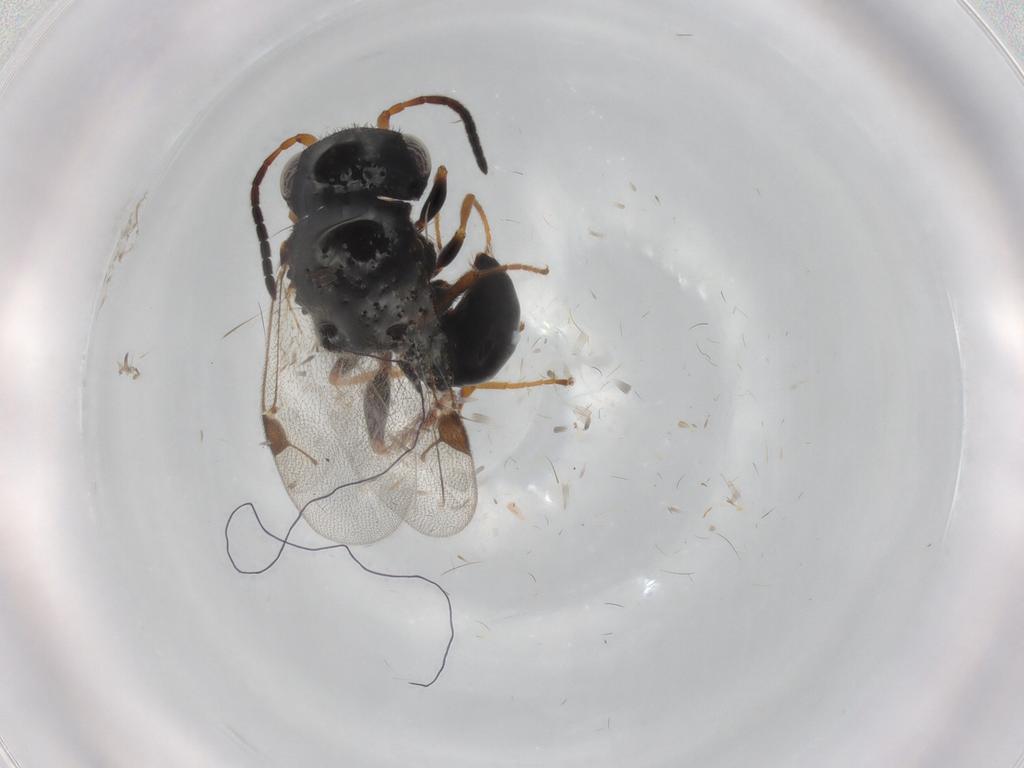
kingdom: Animalia
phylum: Arthropoda
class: Insecta
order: Hymenoptera
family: Dryinidae
